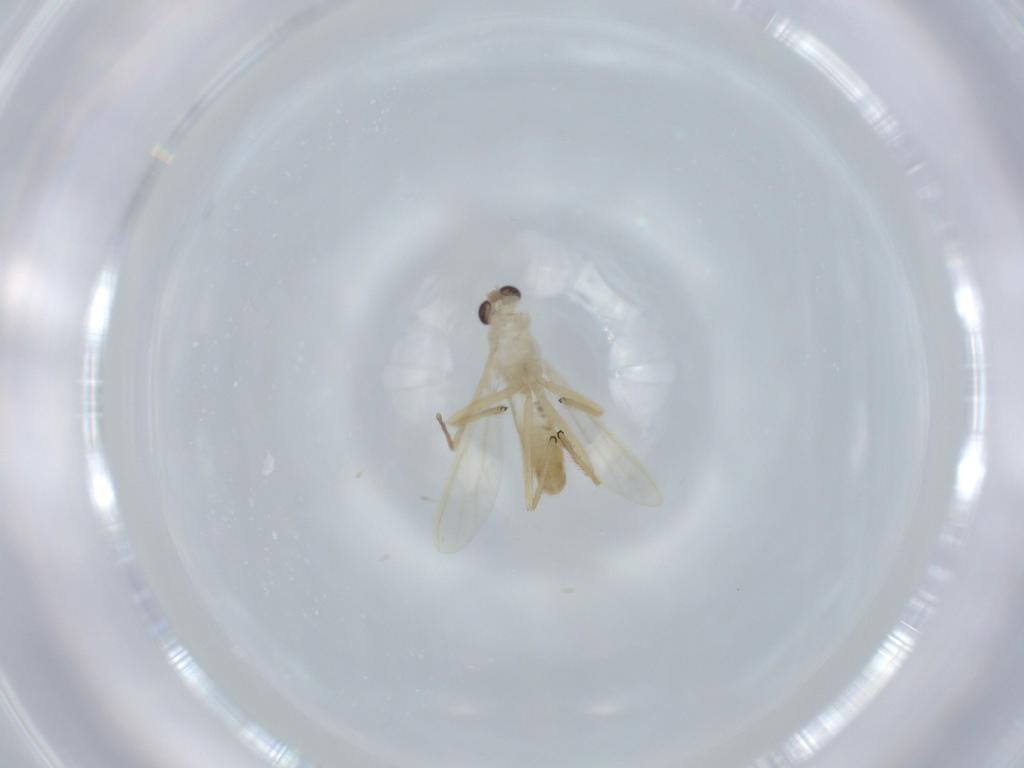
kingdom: Animalia
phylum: Arthropoda
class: Insecta
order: Diptera
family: Chironomidae
